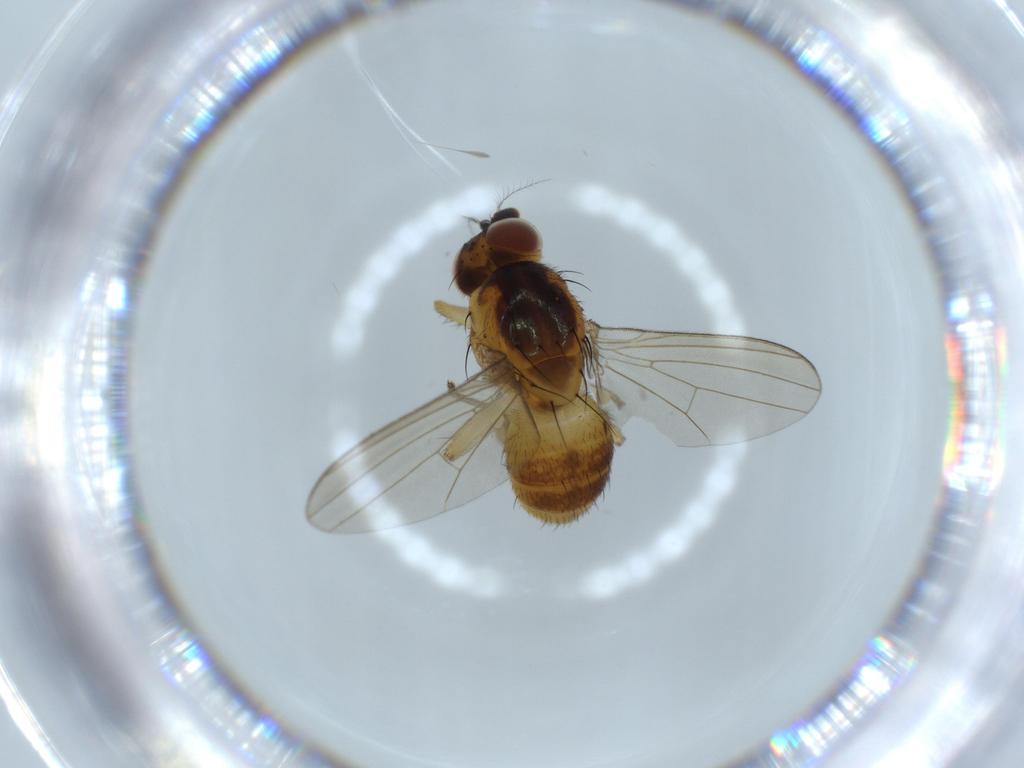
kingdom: Animalia
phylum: Arthropoda
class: Insecta
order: Diptera
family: Lauxaniidae
